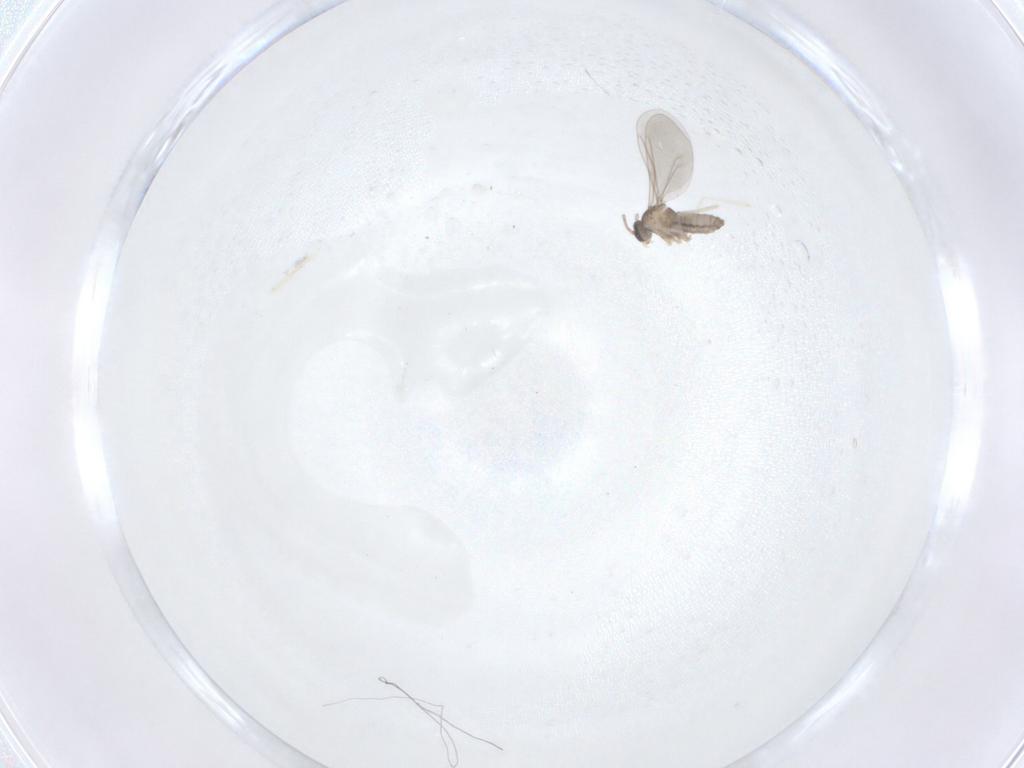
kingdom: Animalia
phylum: Arthropoda
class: Insecta
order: Diptera
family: Cecidomyiidae
